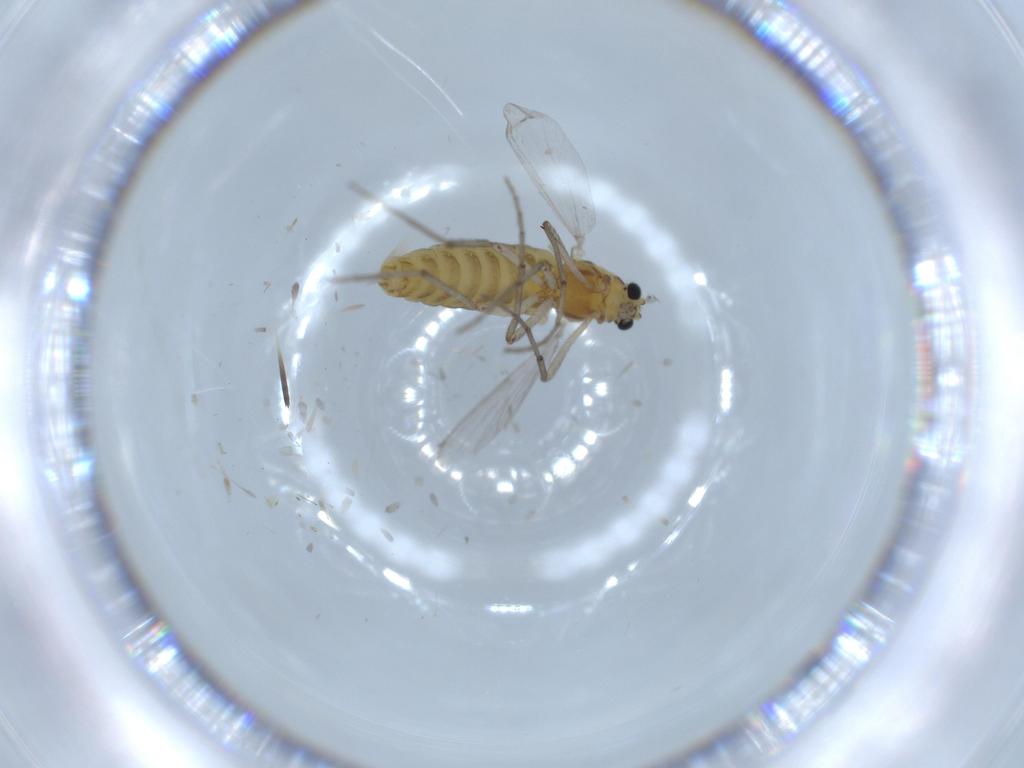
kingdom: Animalia
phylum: Arthropoda
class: Insecta
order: Diptera
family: Chironomidae
